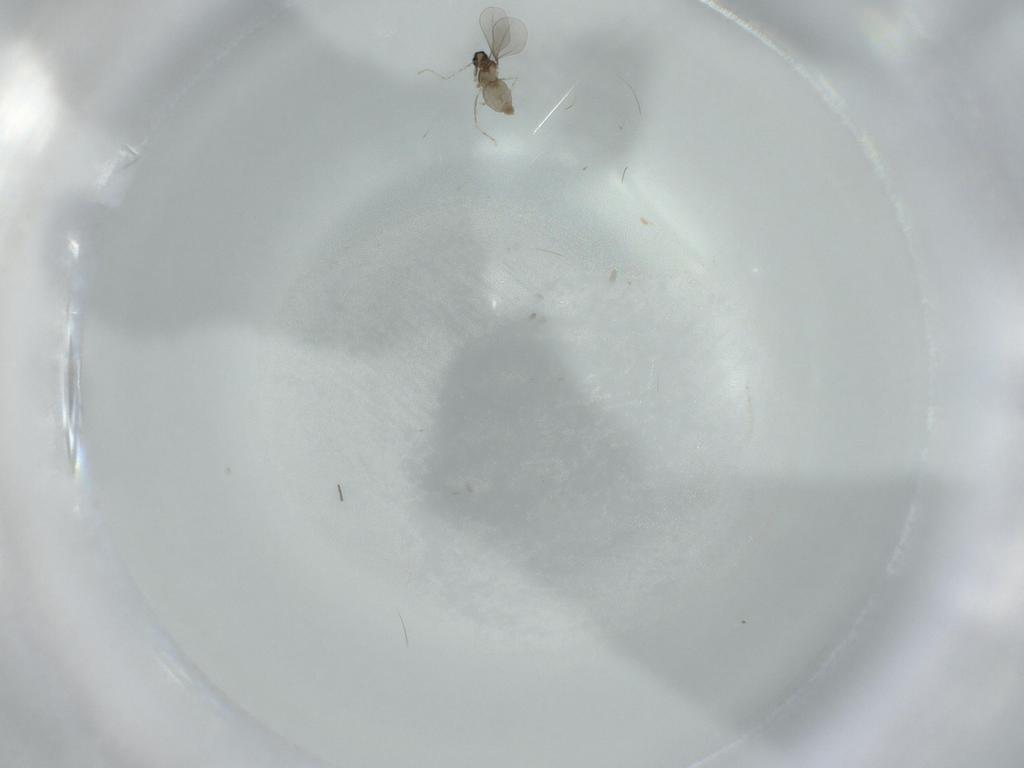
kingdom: Animalia
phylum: Arthropoda
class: Insecta
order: Diptera
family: Cecidomyiidae
